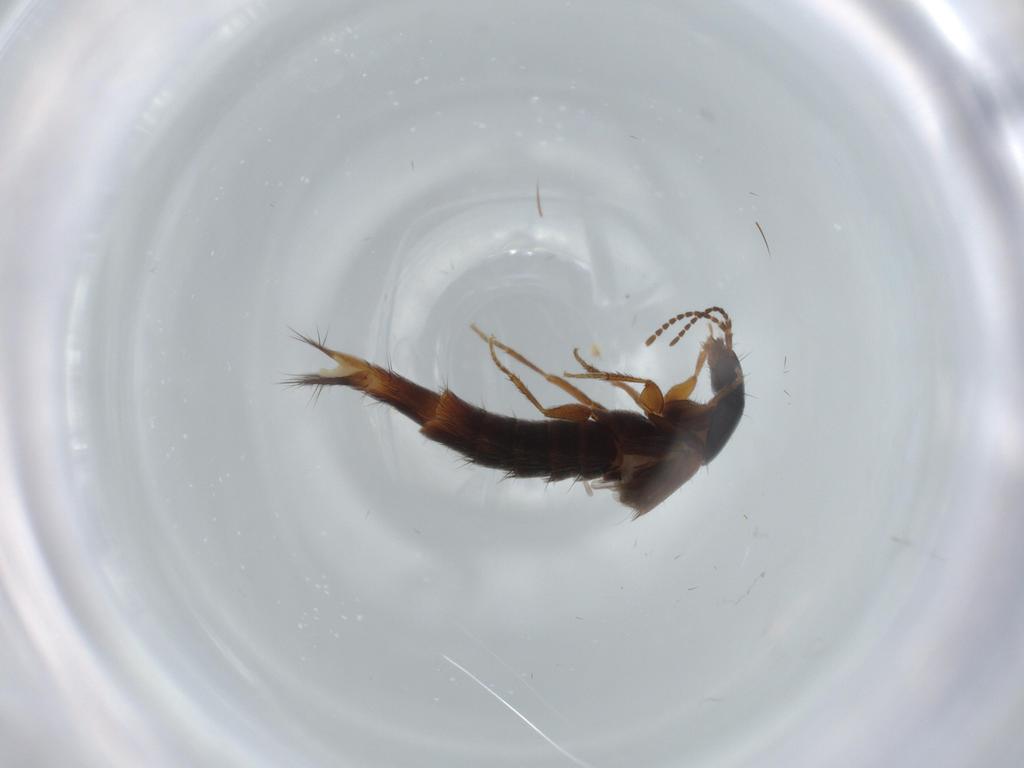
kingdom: Animalia
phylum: Arthropoda
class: Insecta
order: Coleoptera
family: Staphylinidae
